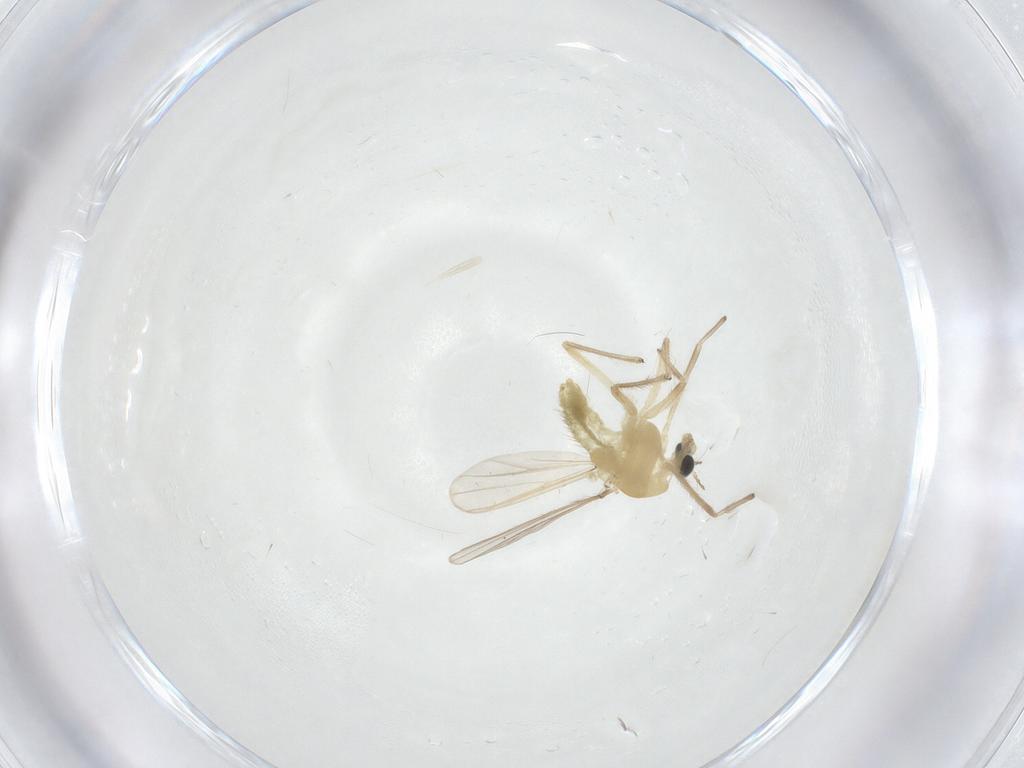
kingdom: Animalia
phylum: Arthropoda
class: Insecta
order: Diptera
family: Chironomidae
